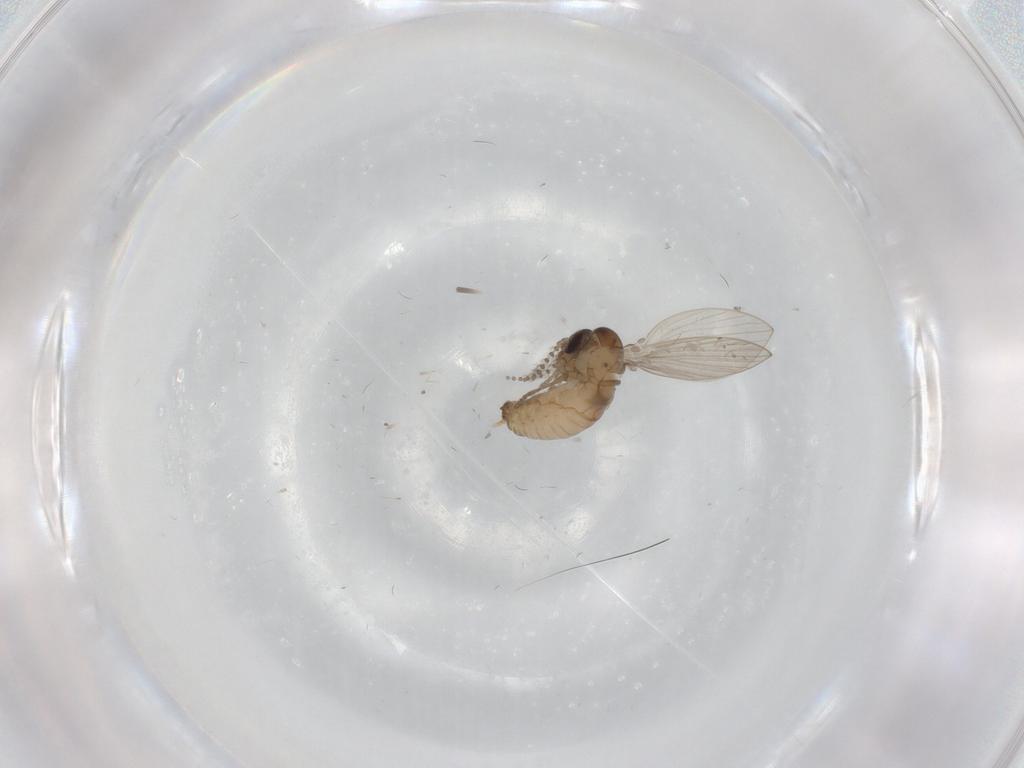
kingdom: Animalia
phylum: Arthropoda
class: Insecta
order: Diptera
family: Psychodidae
